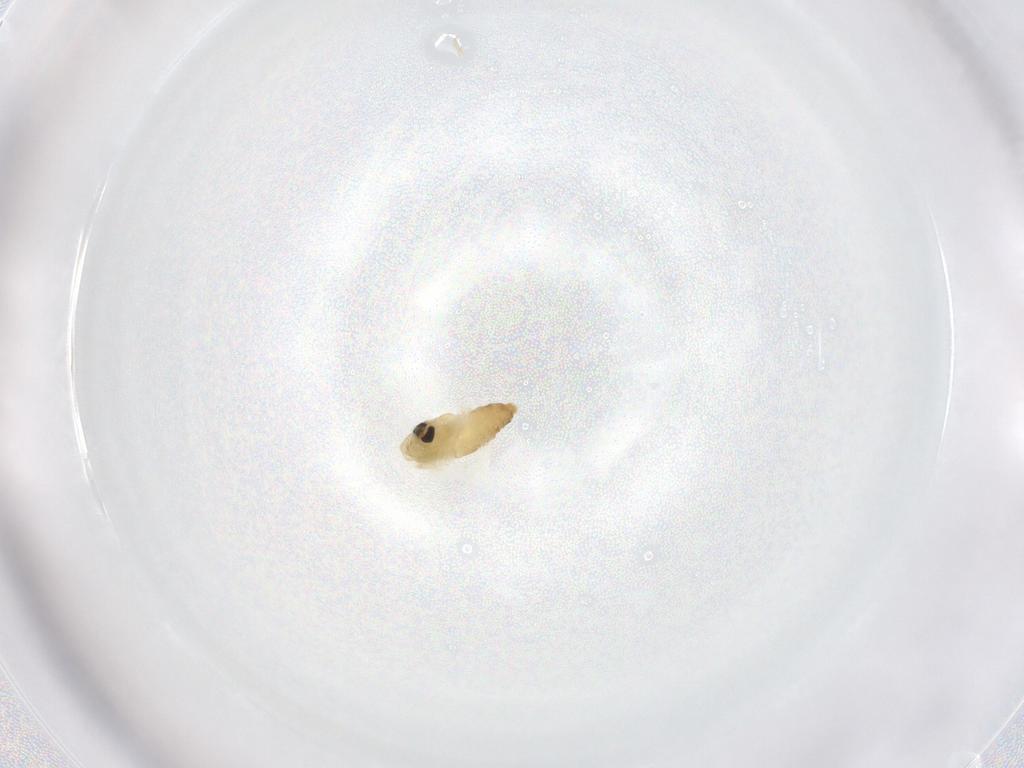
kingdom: Animalia
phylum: Arthropoda
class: Insecta
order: Diptera
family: Chironomidae
